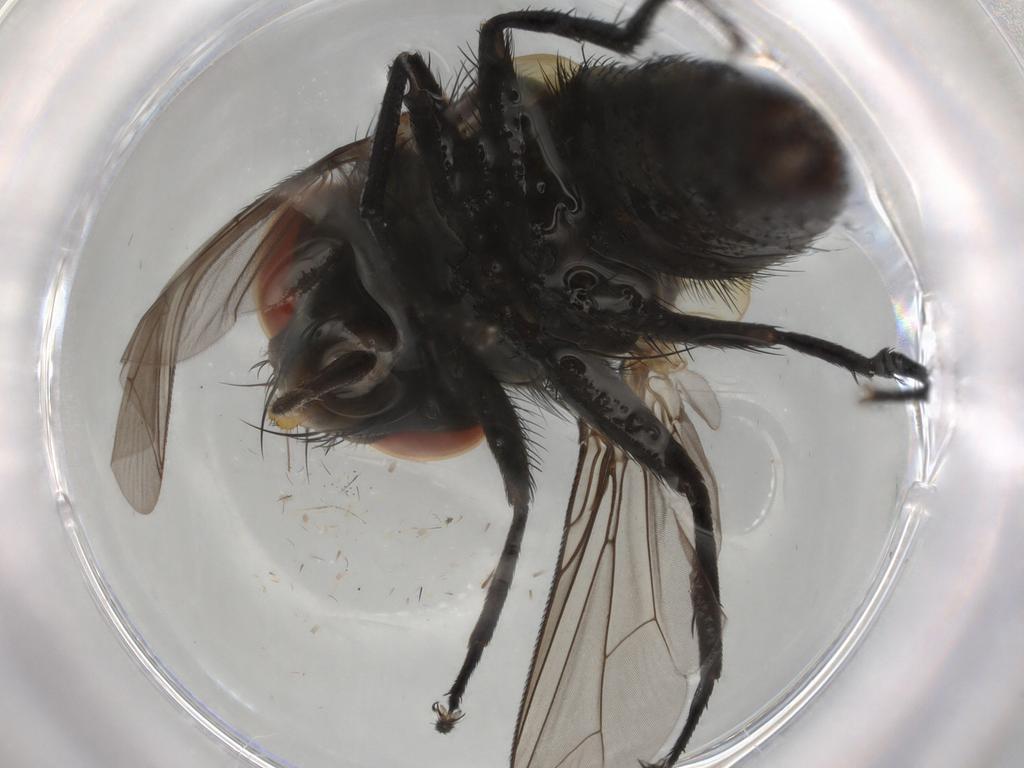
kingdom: Animalia
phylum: Arthropoda
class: Insecta
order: Diptera
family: Sarcophagidae
